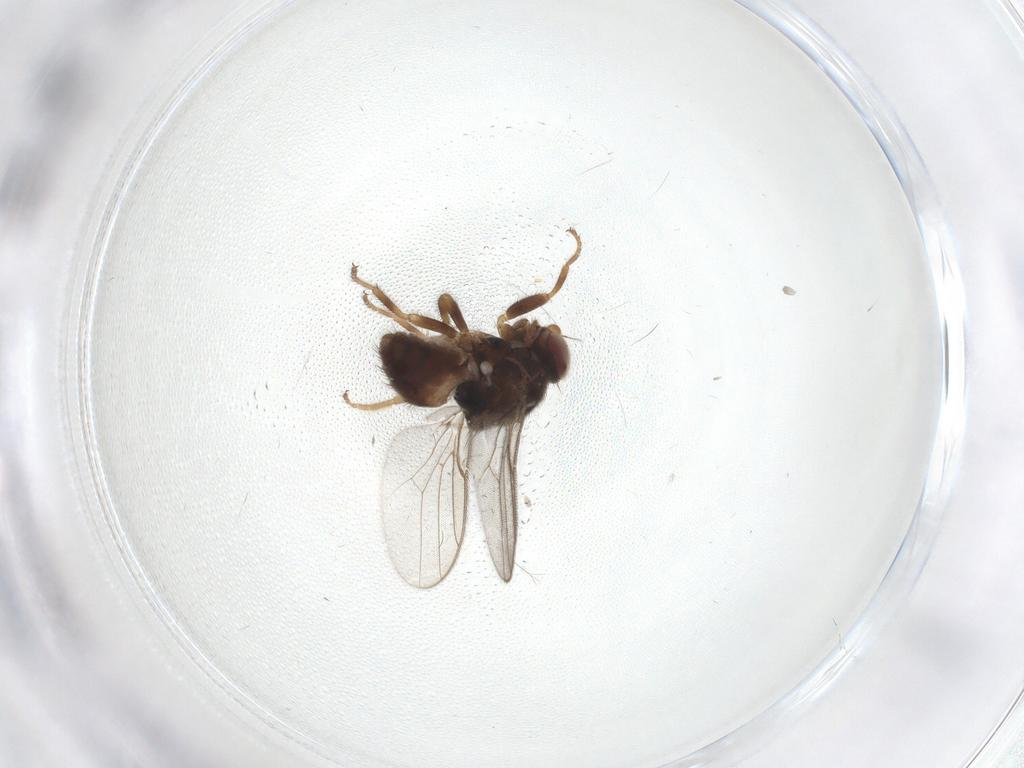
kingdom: Animalia
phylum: Arthropoda
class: Insecta
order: Diptera
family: Chloropidae
